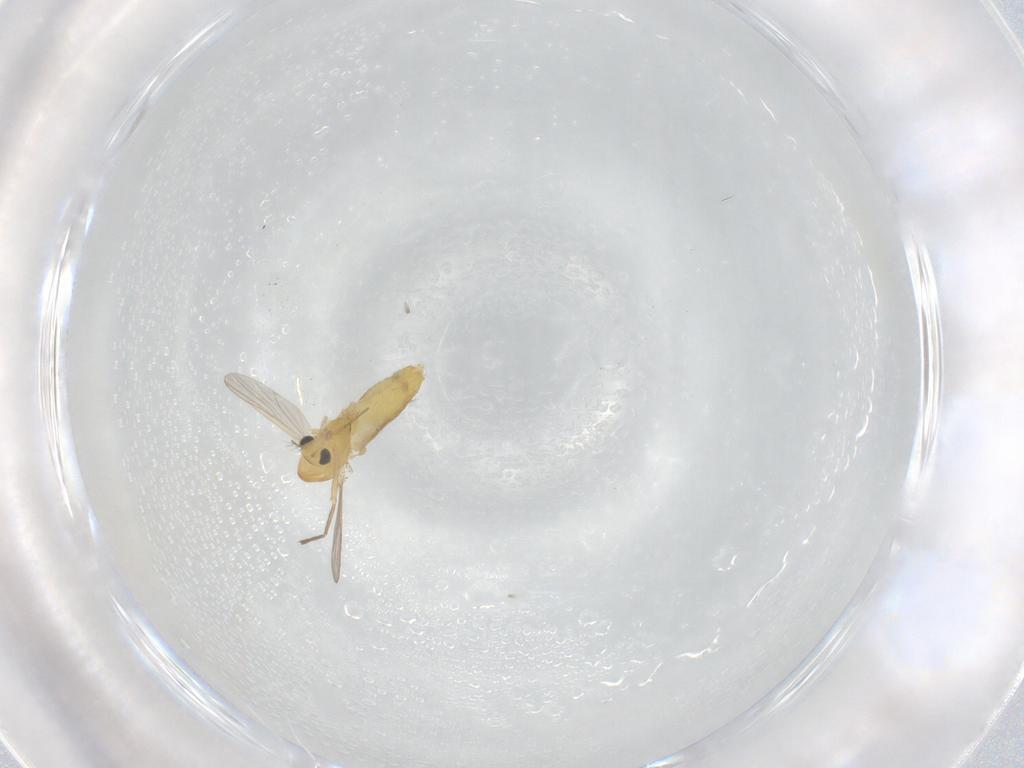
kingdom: Animalia
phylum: Arthropoda
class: Insecta
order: Diptera
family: Chironomidae
